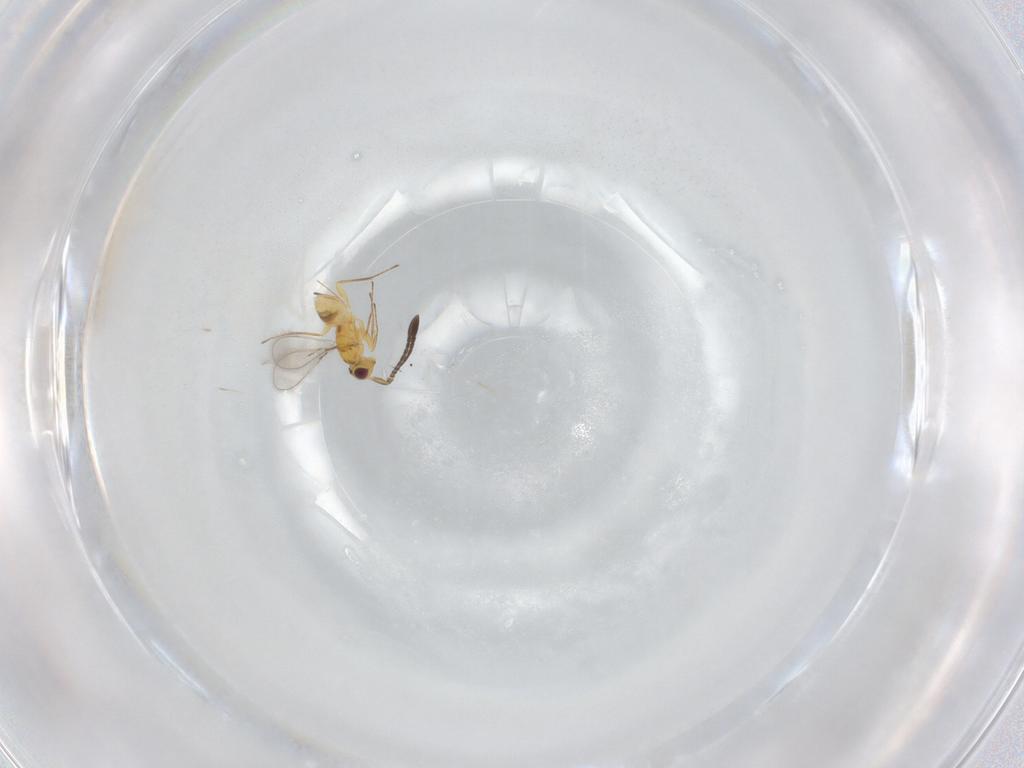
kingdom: Animalia
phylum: Arthropoda
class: Insecta
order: Hymenoptera
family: Mymaridae
